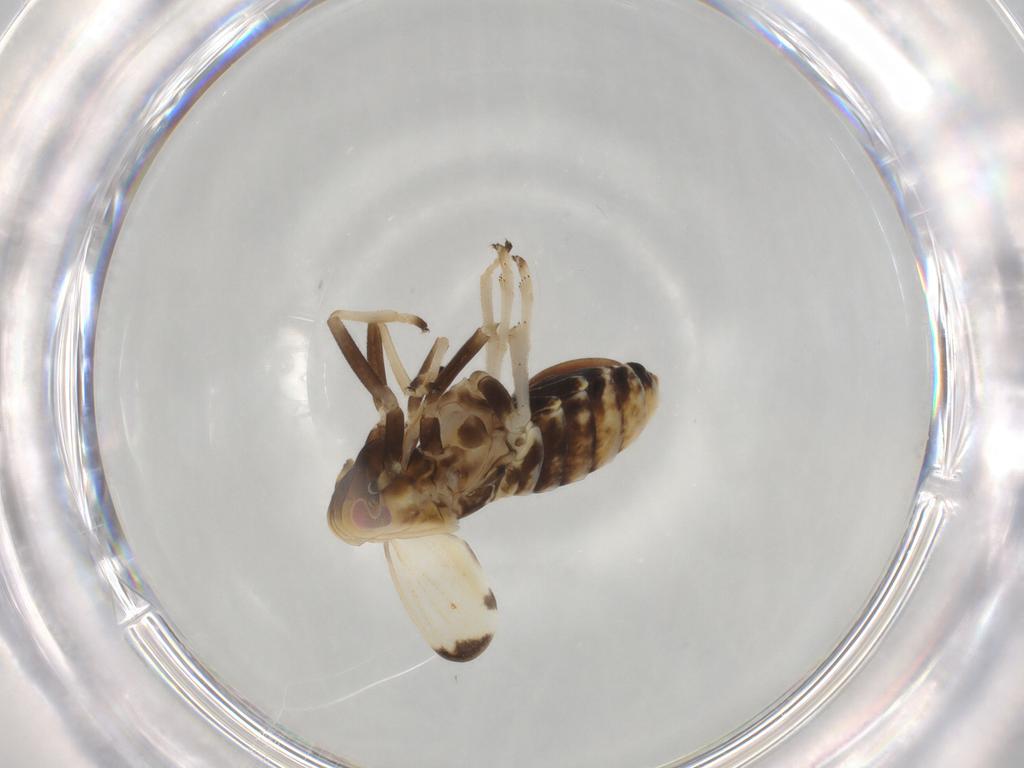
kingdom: Animalia
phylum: Arthropoda
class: Insecta
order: Hemiptera
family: Delphacidae
